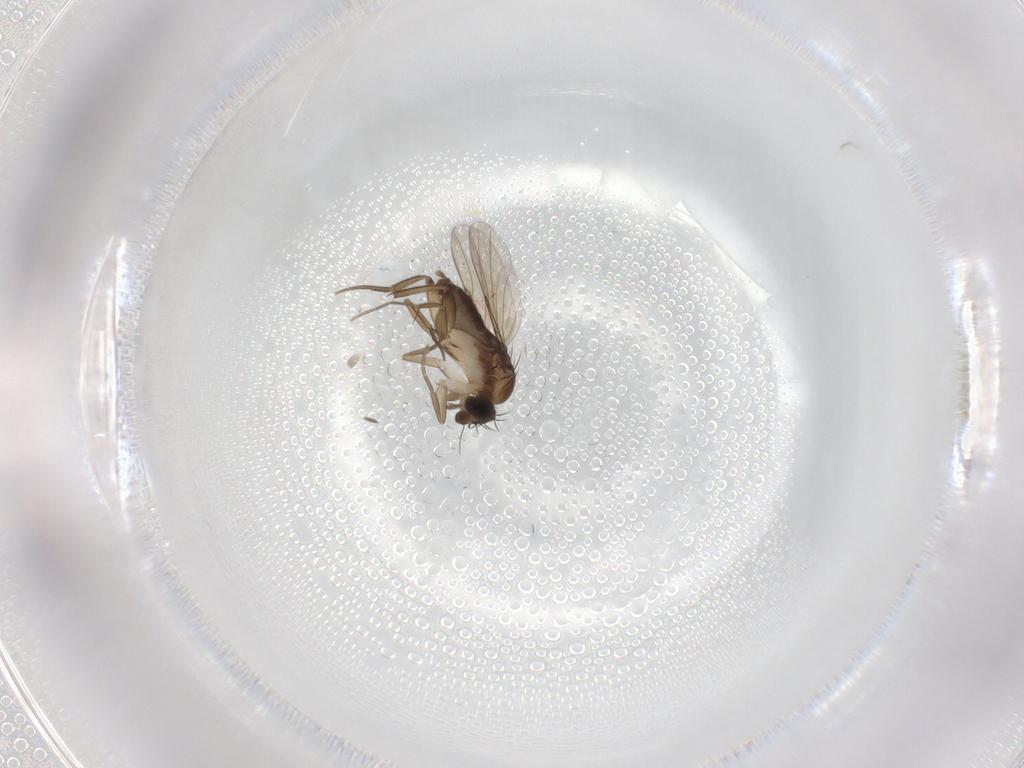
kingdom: Animalia
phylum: Arthropoda
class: Insecta
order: Diptera
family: Phoridae
